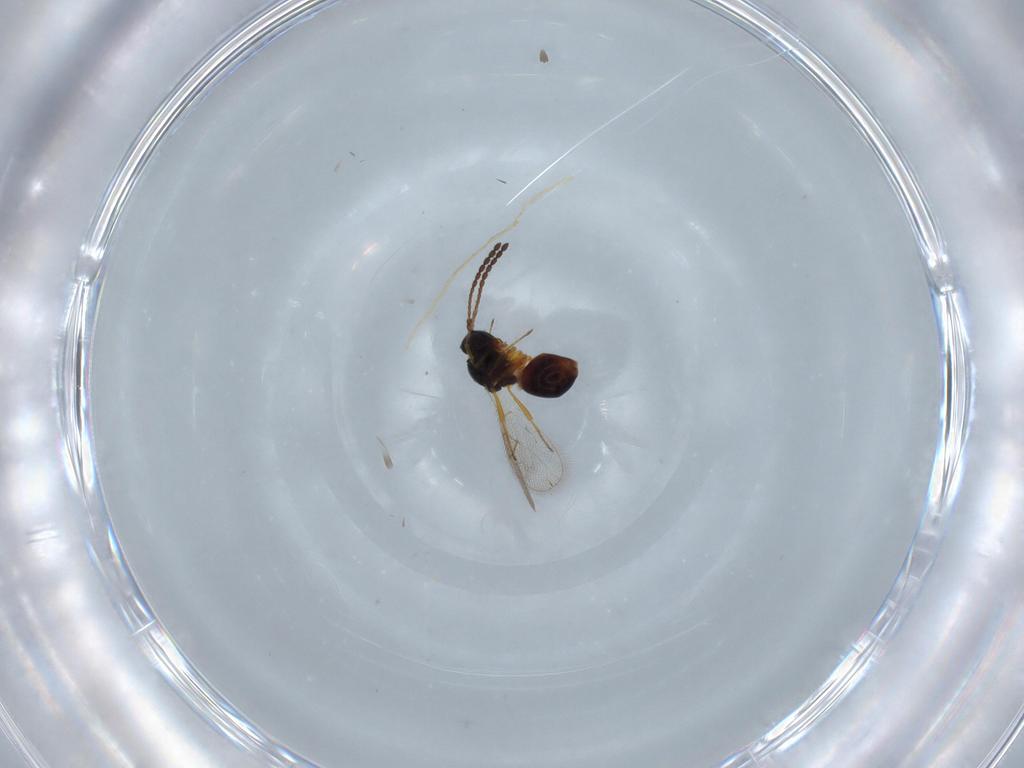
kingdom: Animalia
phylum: Arthropoda
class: Insecta
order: Hymenoptera
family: Figitidae
